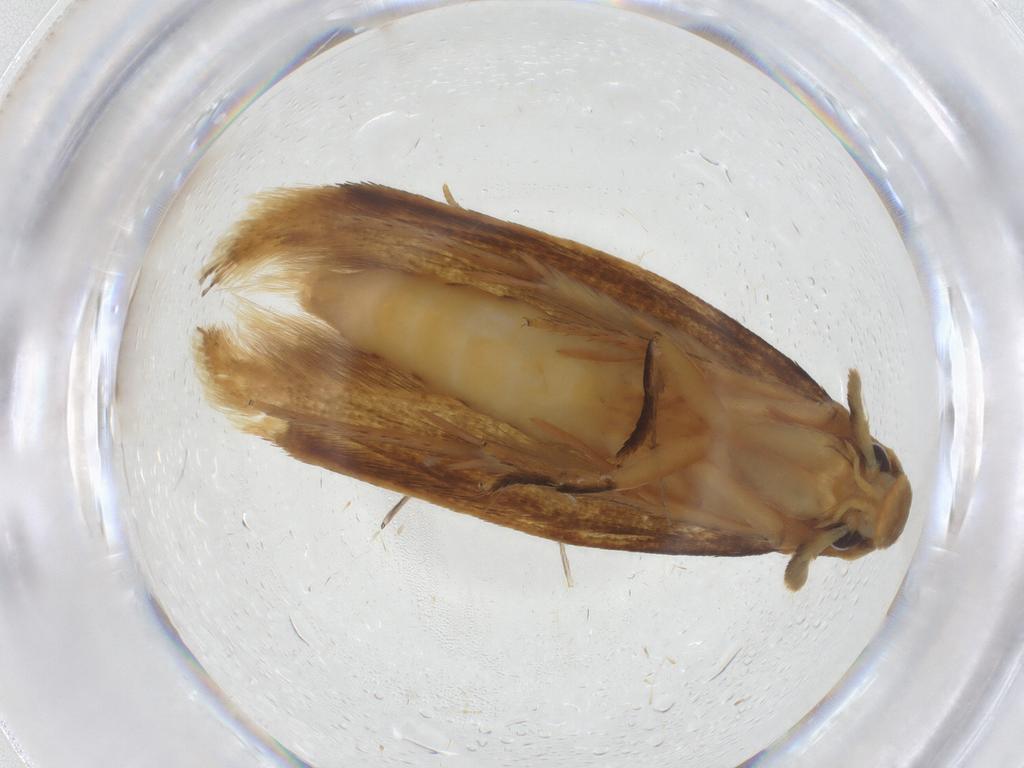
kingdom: Animalia
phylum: Arthropoda
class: Insecta
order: Lepidoptera
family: Tineidae
